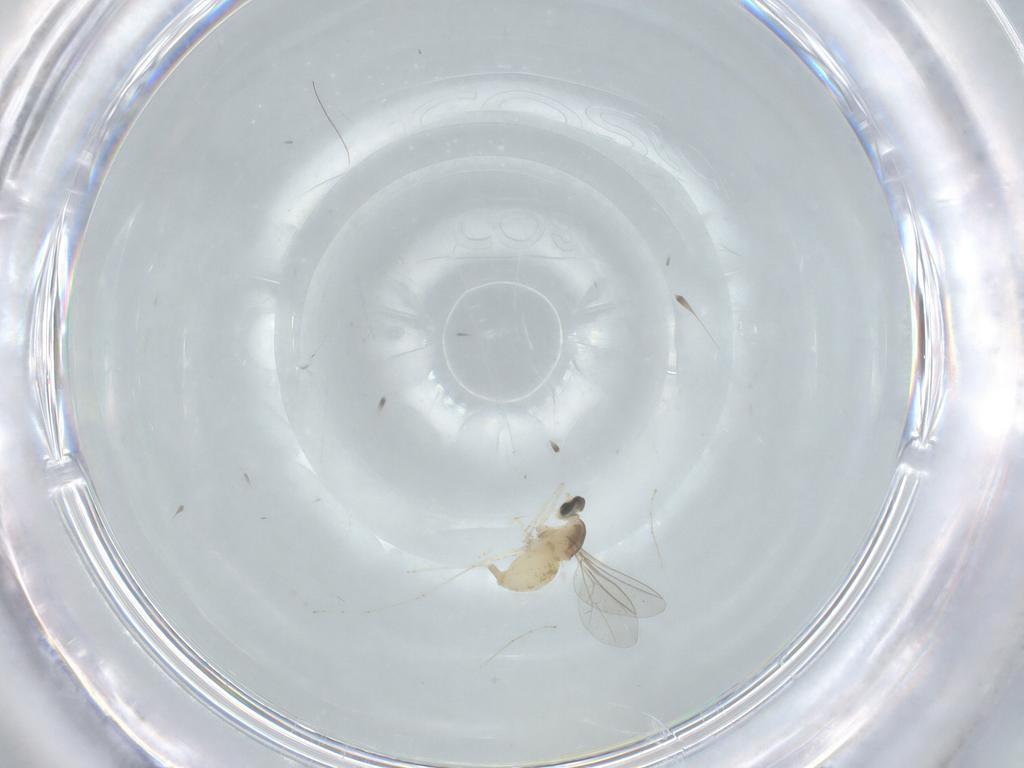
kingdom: Animalia
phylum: Arthropoda
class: Insecta
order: Diptera
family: Cecidomyiidae
